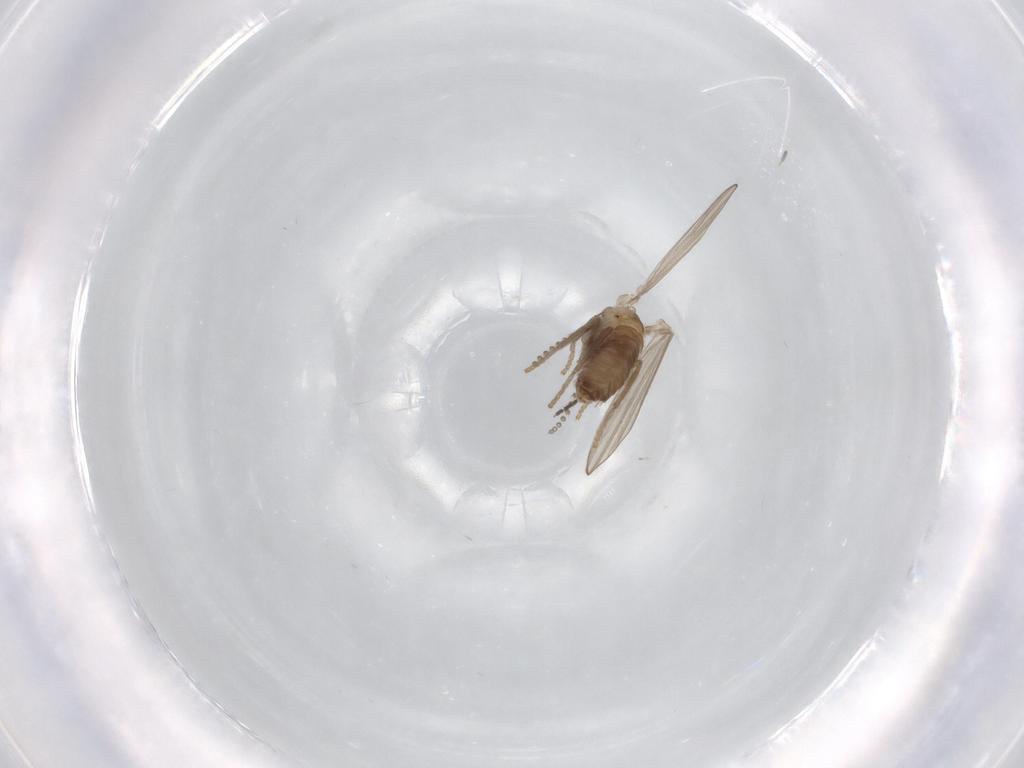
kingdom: Animalia
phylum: Arthropoda
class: Insecta
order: Diptera
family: Sciaridae
